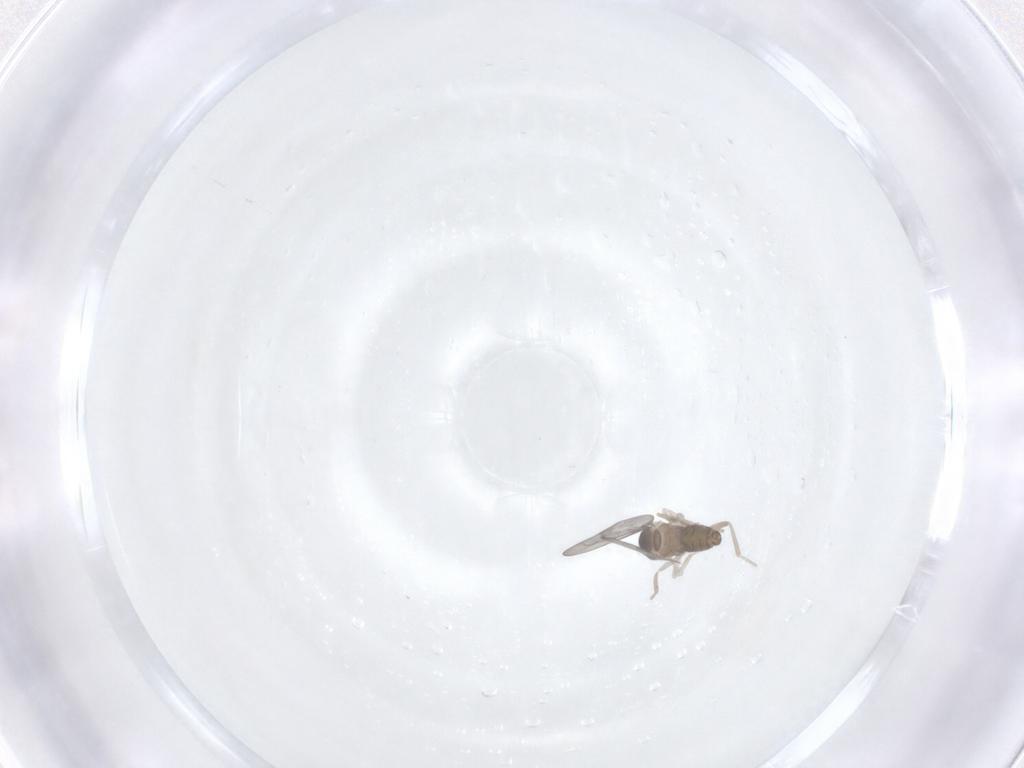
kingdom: Animalia
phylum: Arthropoda
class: Insecta
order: Diptera
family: Cecidomyiidae
